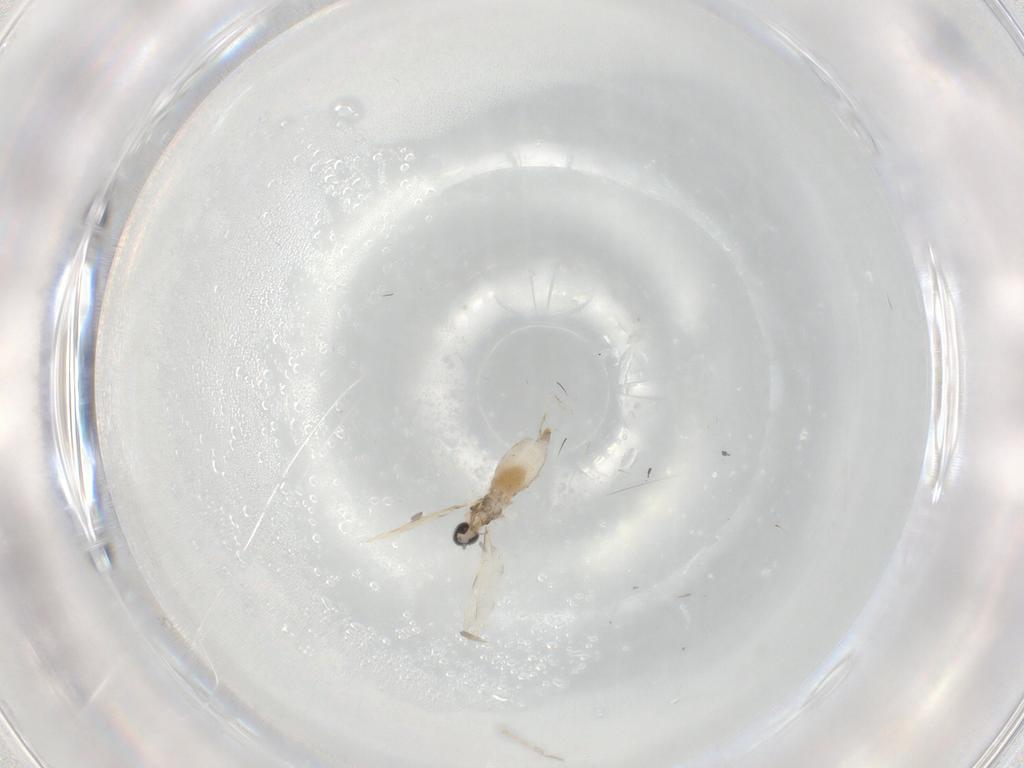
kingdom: Animalia
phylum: Arthropoda
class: Insecta
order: Diptera
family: Cecidomyiidae
